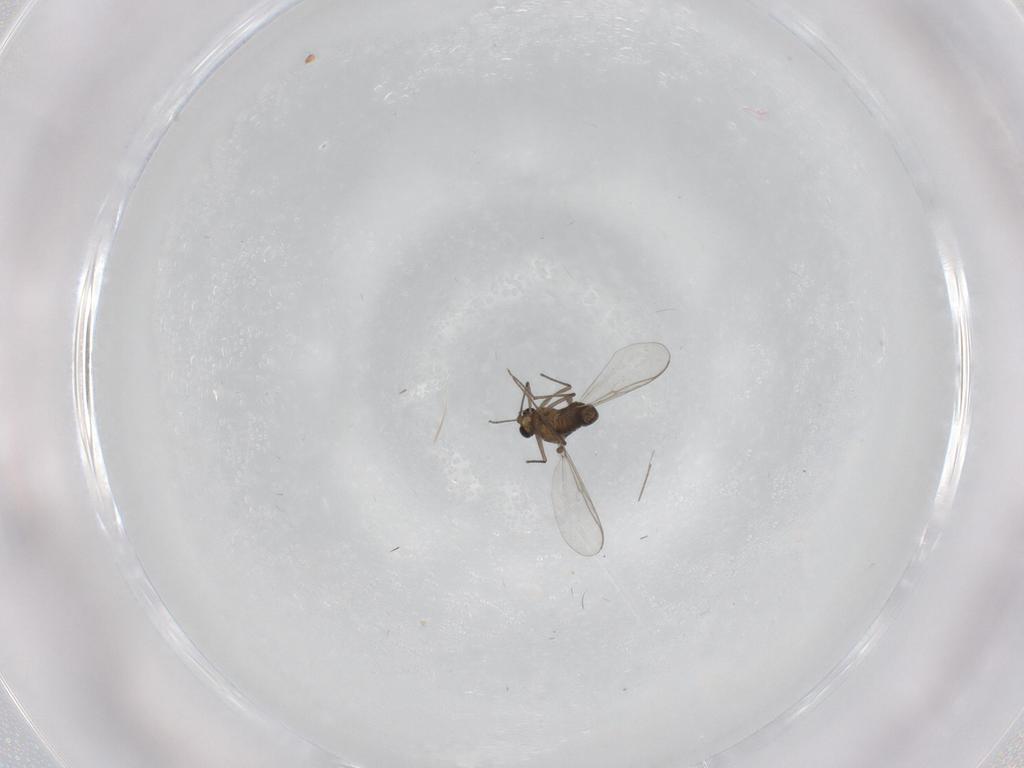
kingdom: Animalia
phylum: Arthropoda
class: Insecta
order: Diptera
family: Chironomidae
